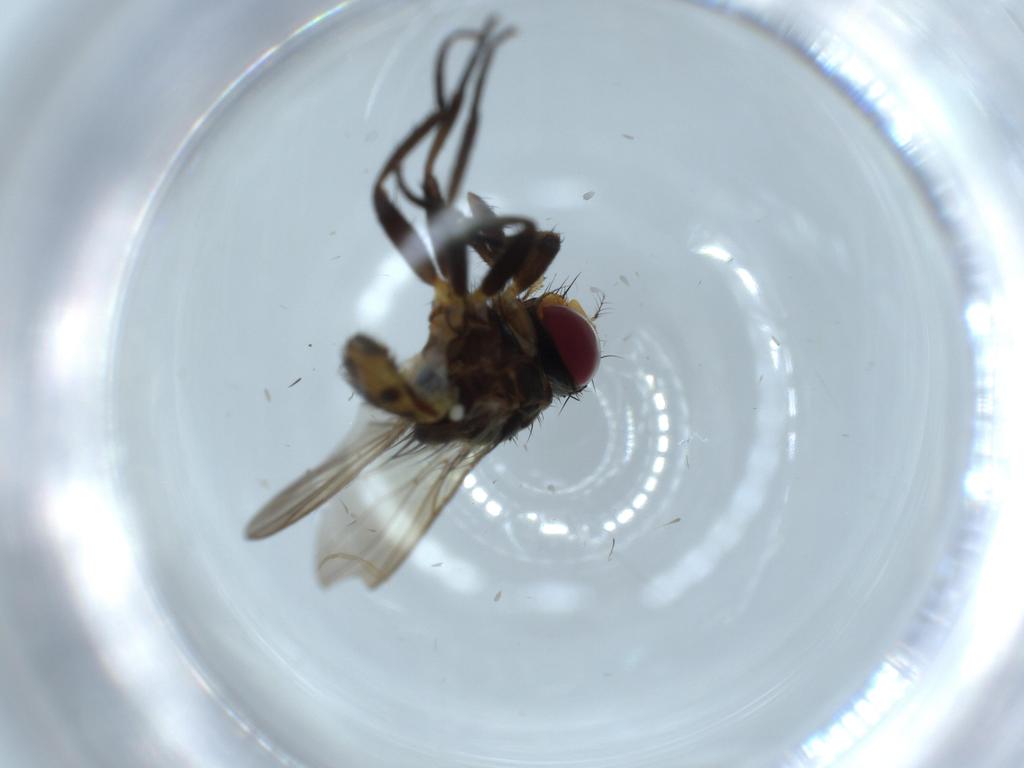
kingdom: Animalia
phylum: Arthropoda
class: Insecta
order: Diptera
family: Anthomyiidae
